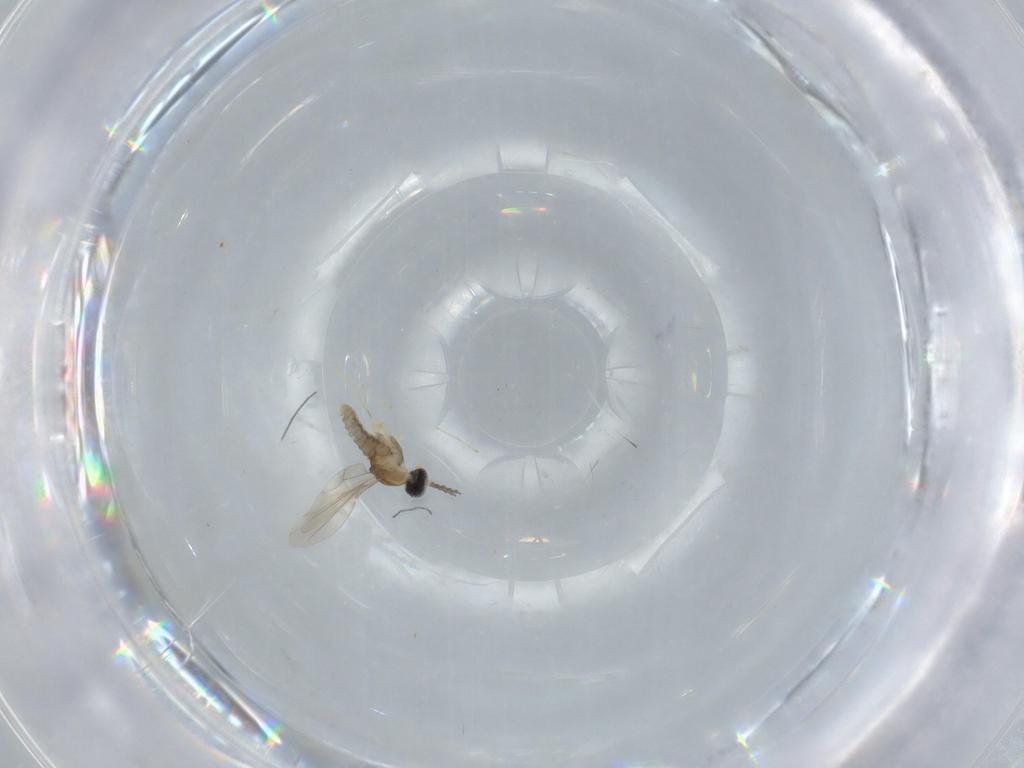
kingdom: Animalia
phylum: Arthropoda
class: Insecta
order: Diptera
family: Cecidomyiidae
